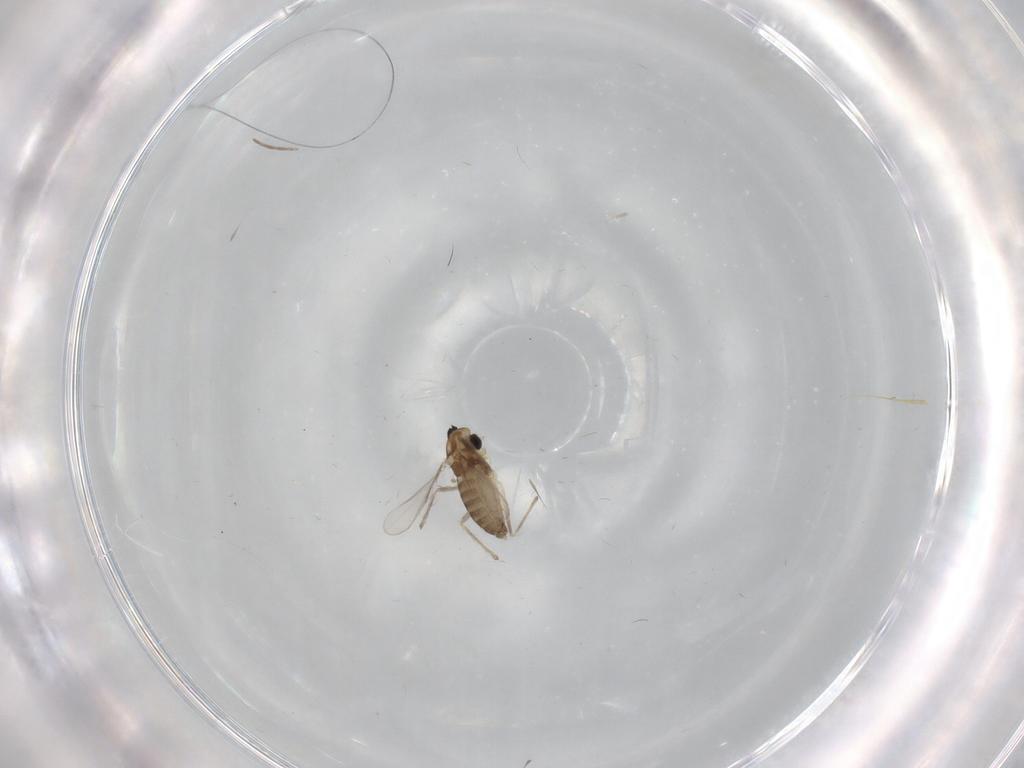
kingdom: Animalia
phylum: Arthropoda
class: Insecta
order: Diptera
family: Chironomidae
